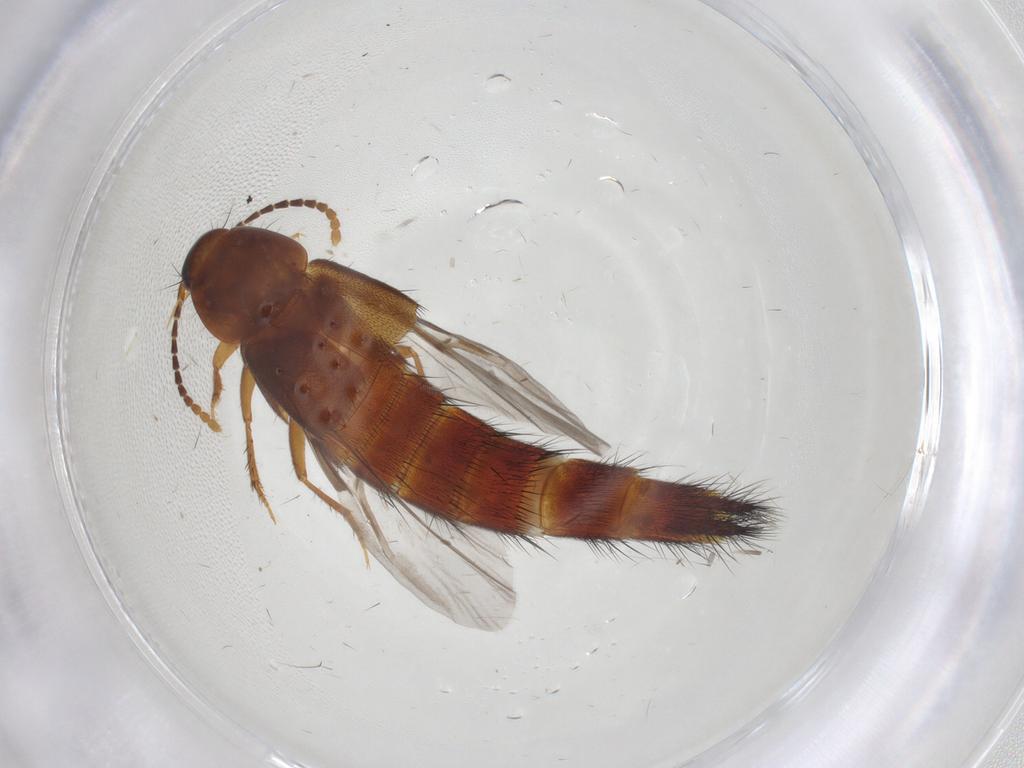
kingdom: Animalia
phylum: Arthropoda
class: Insecta
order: Coleoptera
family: Staphylinidae
